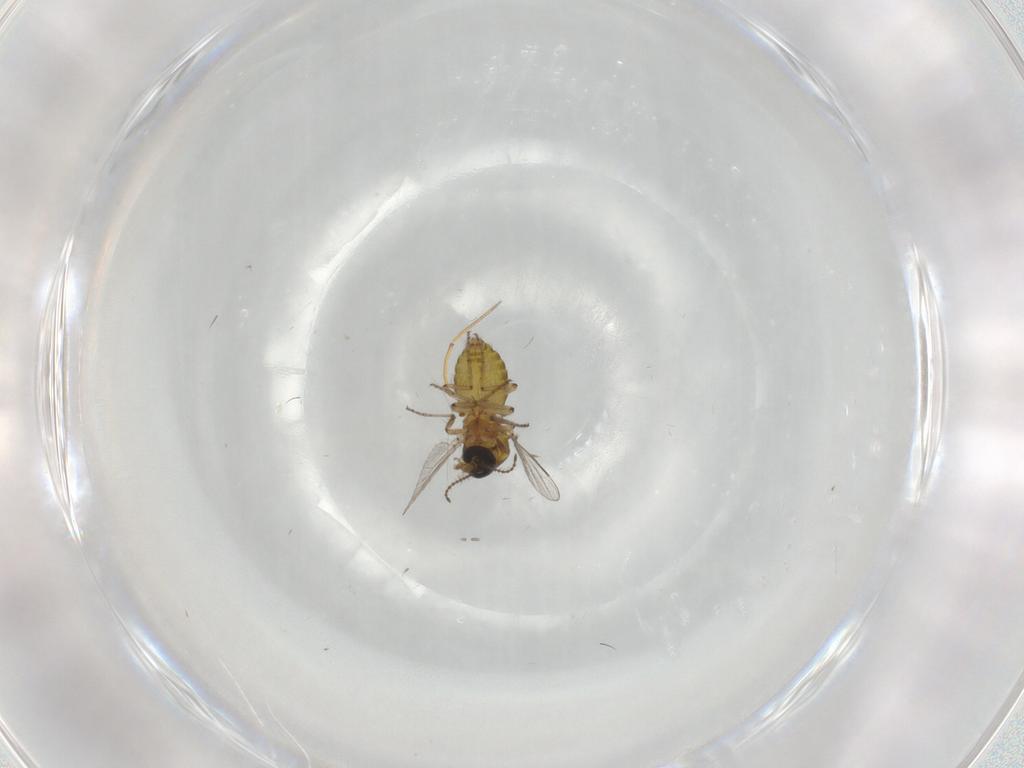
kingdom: Animalia
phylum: Arthropoda
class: Insecta
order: Diptera
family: Ceratopogonidae
